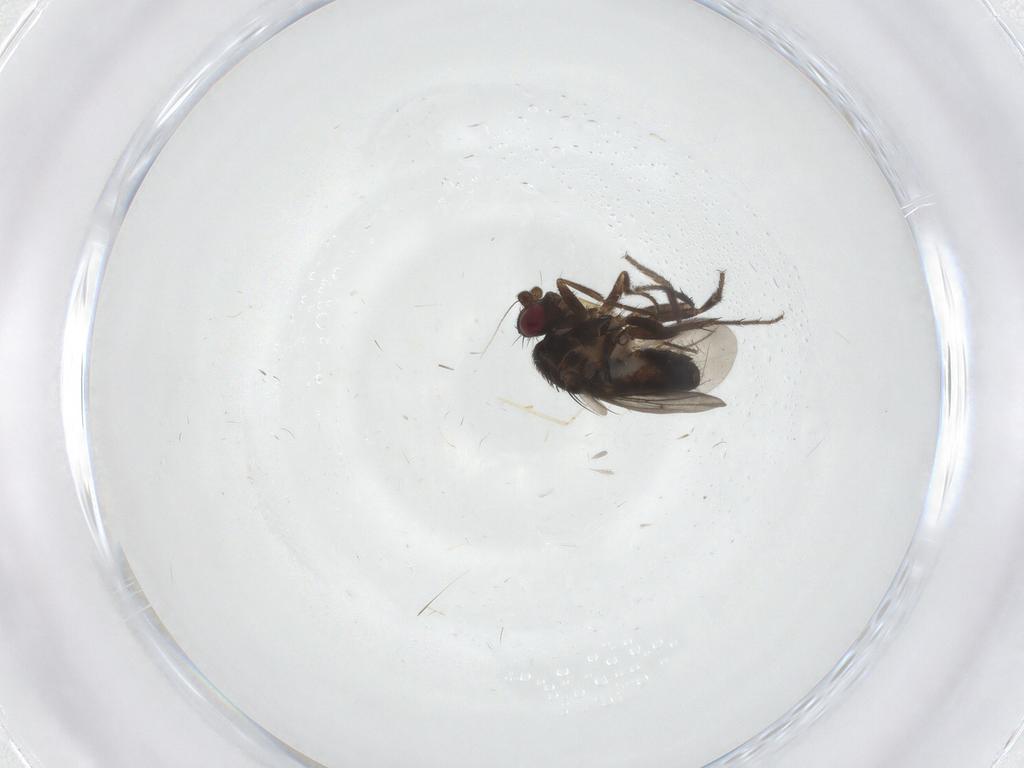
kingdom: Animalia
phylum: Arthropoda
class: Insecta
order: Diptera
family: Sphaeroceridae
